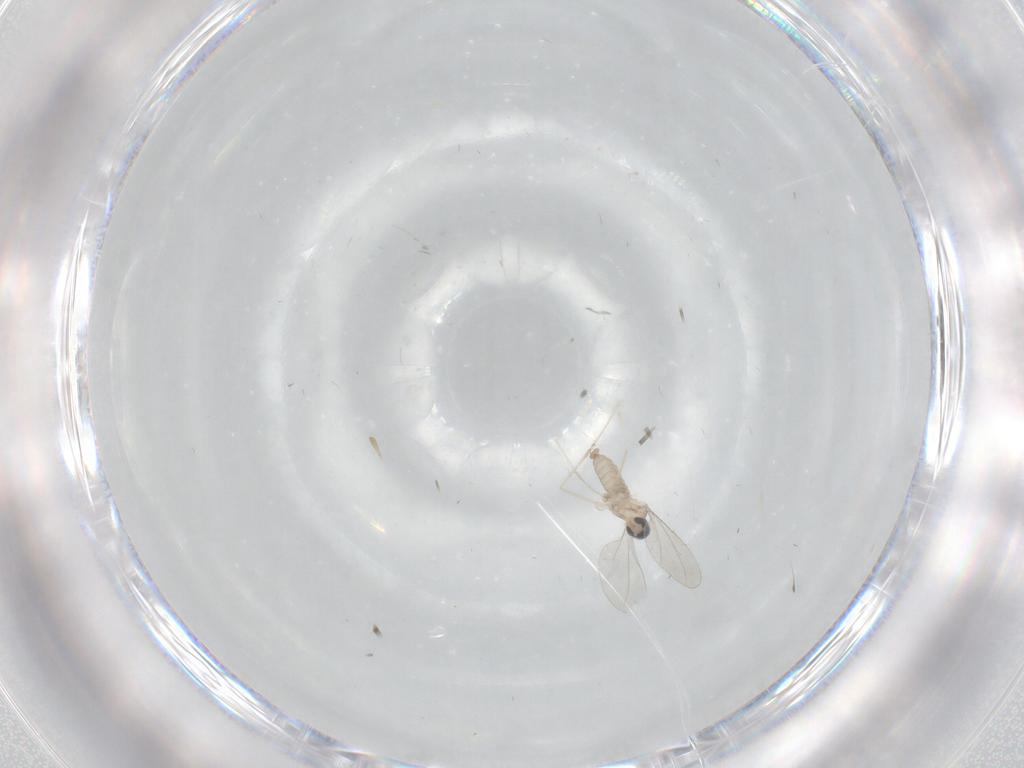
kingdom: Animalia
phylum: Arthropoda
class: Insecta
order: Diptera
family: Cecidomyiidae
